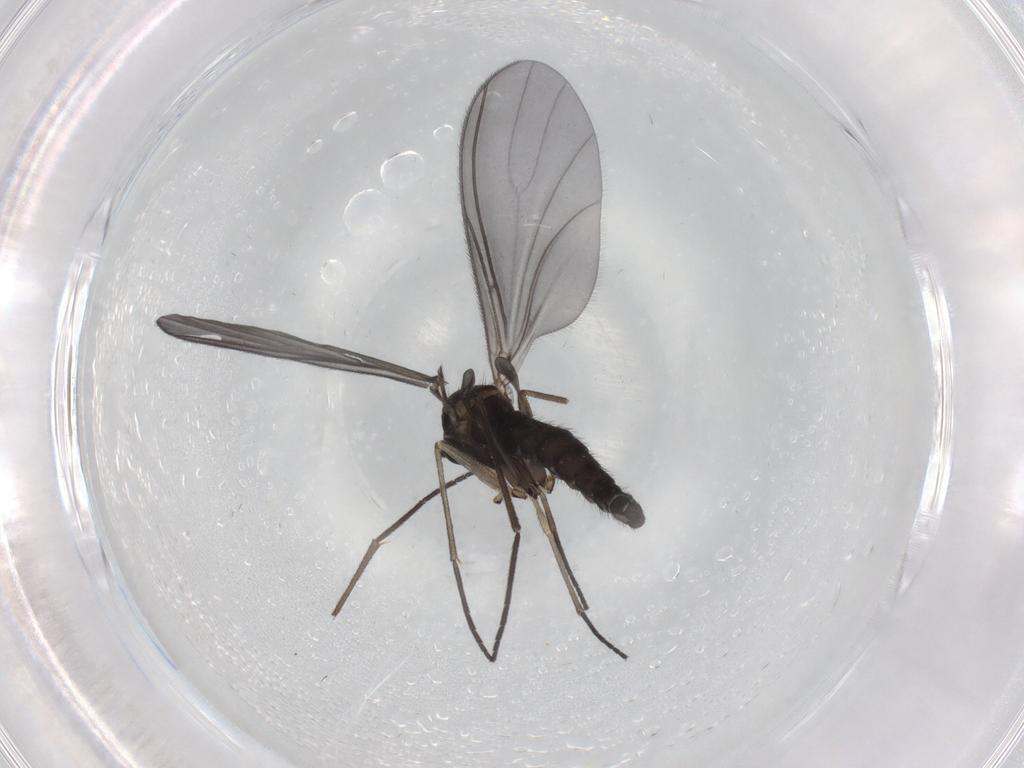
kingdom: Animalia
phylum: Arthropoda
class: Insecta
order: Diptera
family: Sciaridae
